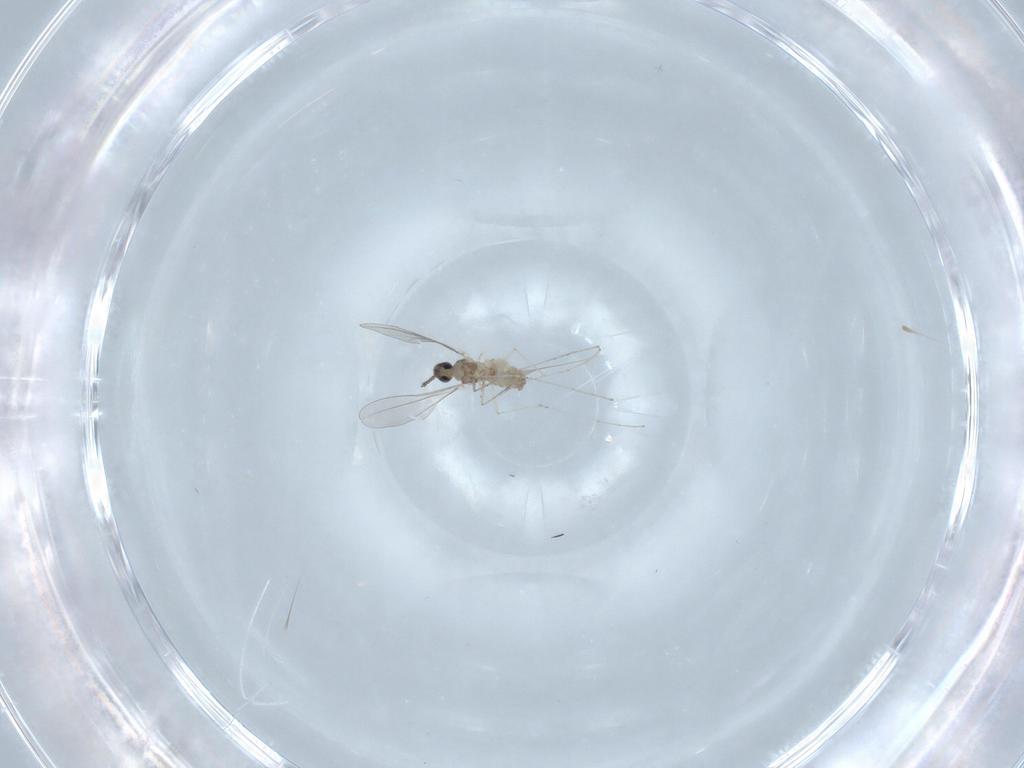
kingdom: Animalia
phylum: Arthropoda
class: Insecta
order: Diptera
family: Cecidomyiidae
